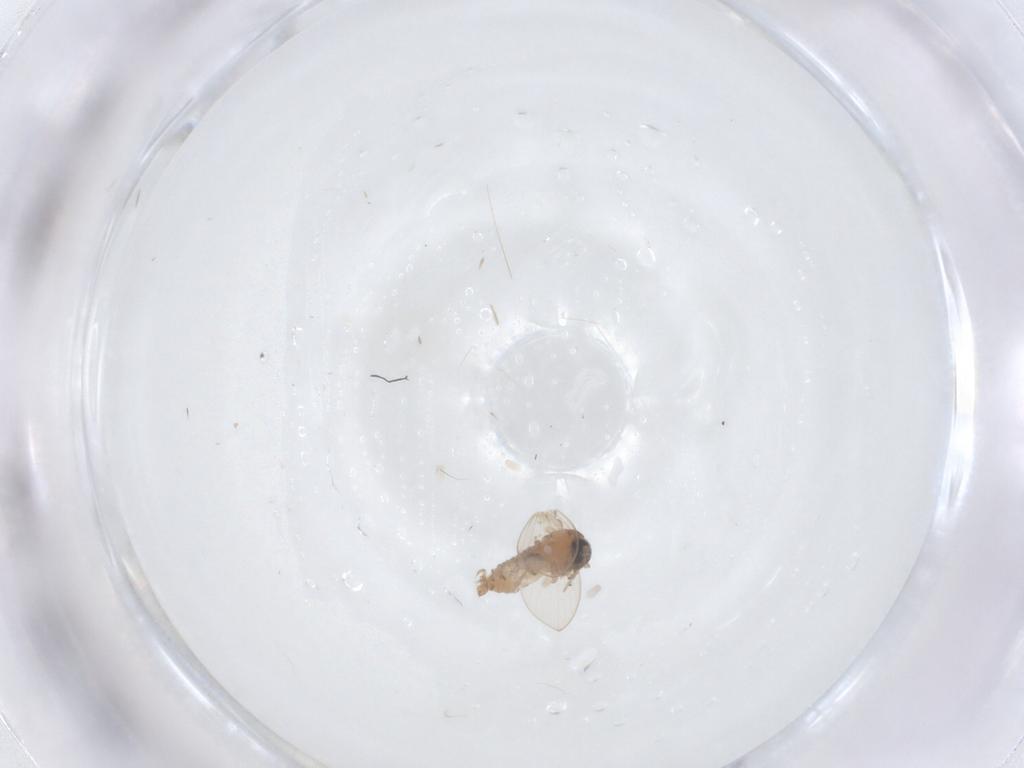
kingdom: Animalia
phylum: Arthropoda
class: Insecta
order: Diptera
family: Psychodidae
